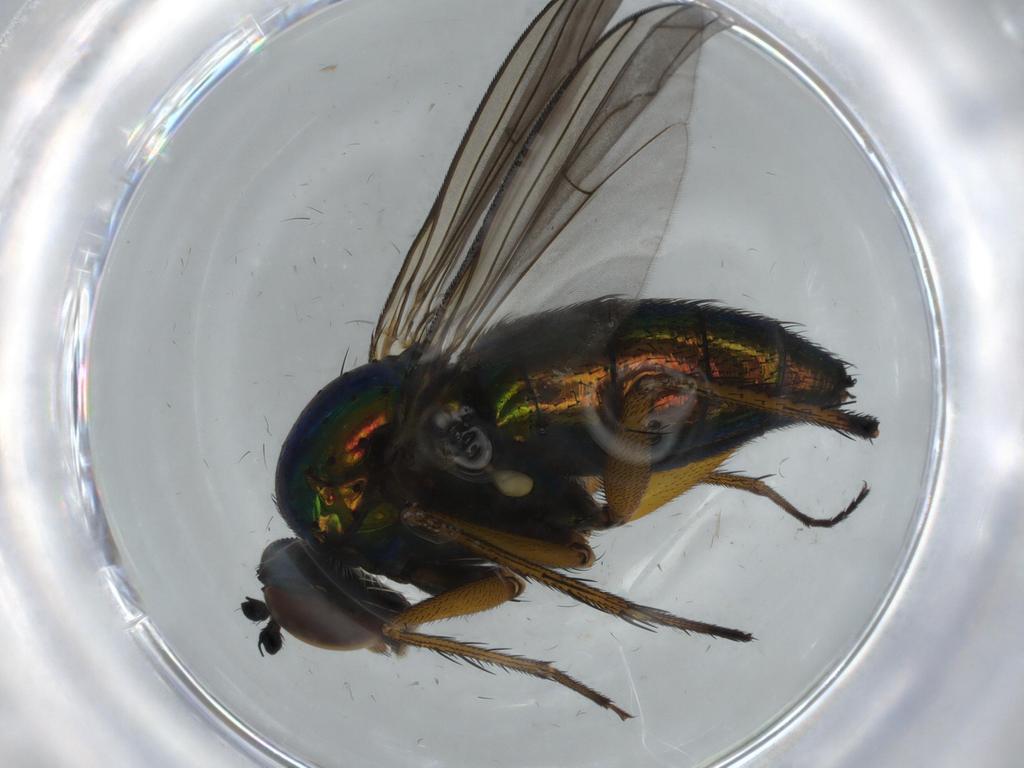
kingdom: Animalia
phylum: Arthropoda
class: Insecta
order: Diptera
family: Dolichopodidae
